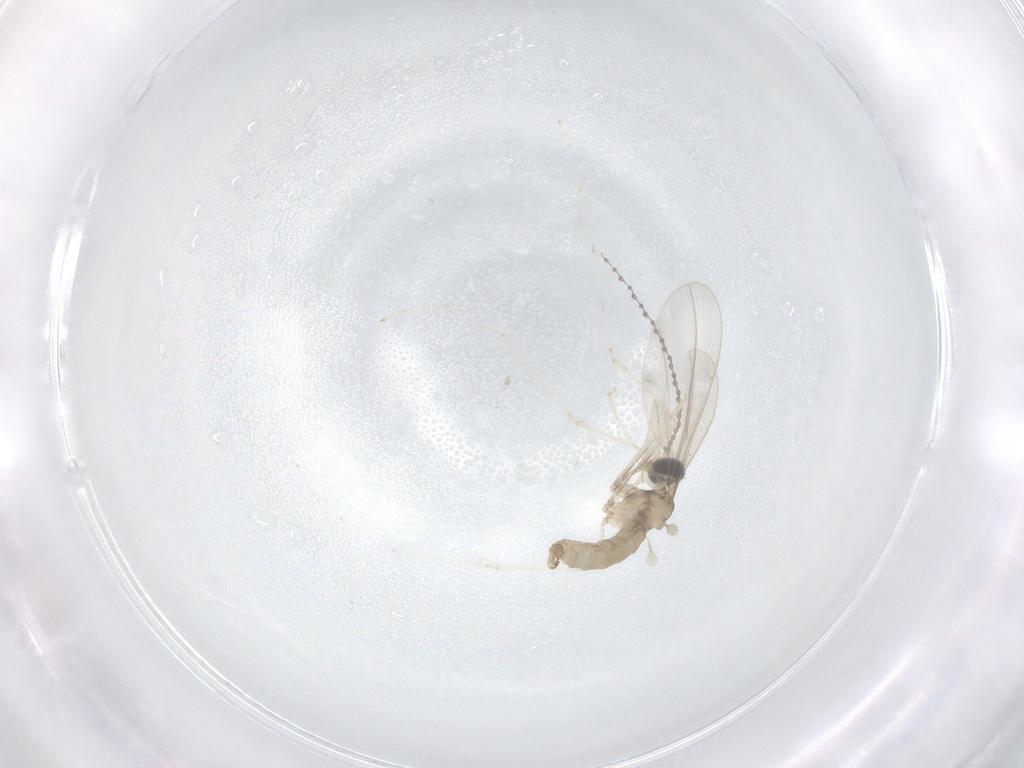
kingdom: Animalia
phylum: Arthropoda
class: Insecta
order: Diptera
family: Cecidomyiidae
